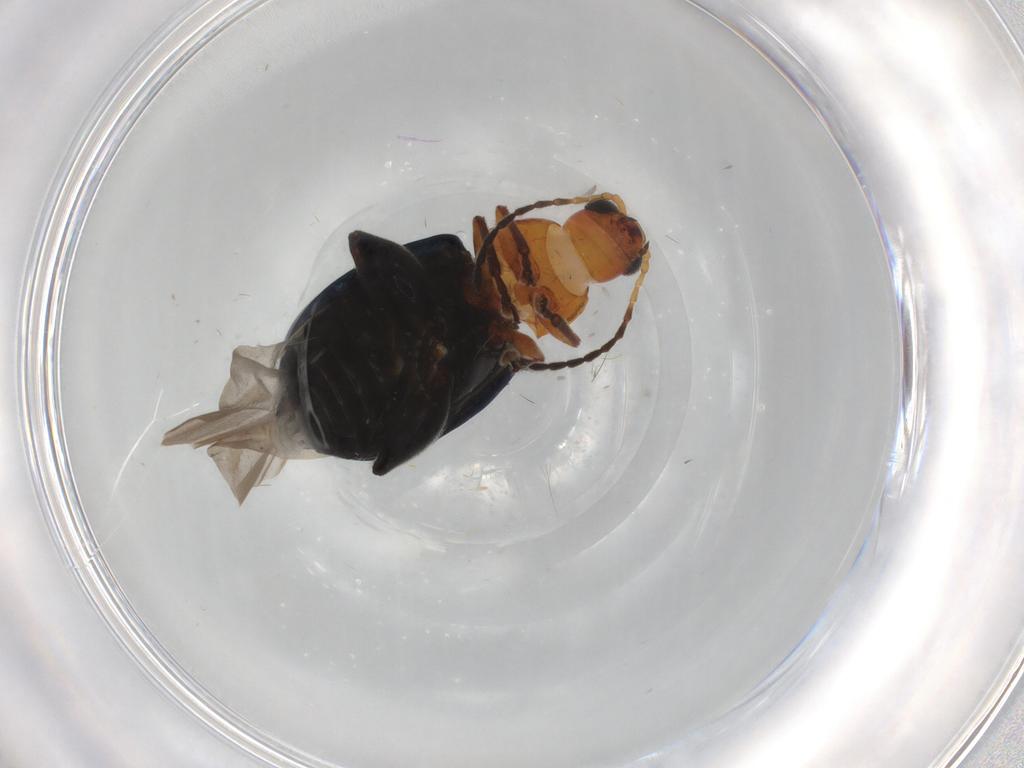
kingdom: Animalia
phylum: Arthropoda
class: Insecta
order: Coleoptera
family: Chrysomelidae
